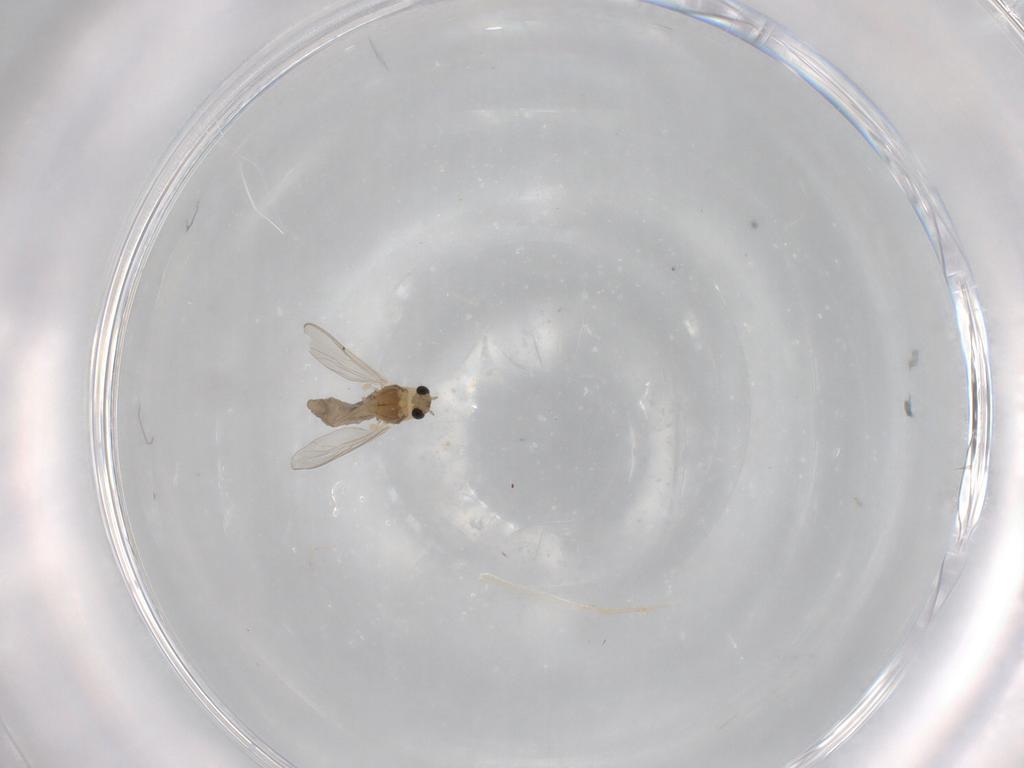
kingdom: Animalia
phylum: Arthropoda
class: Insecta
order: Diptera
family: Chironomidae
